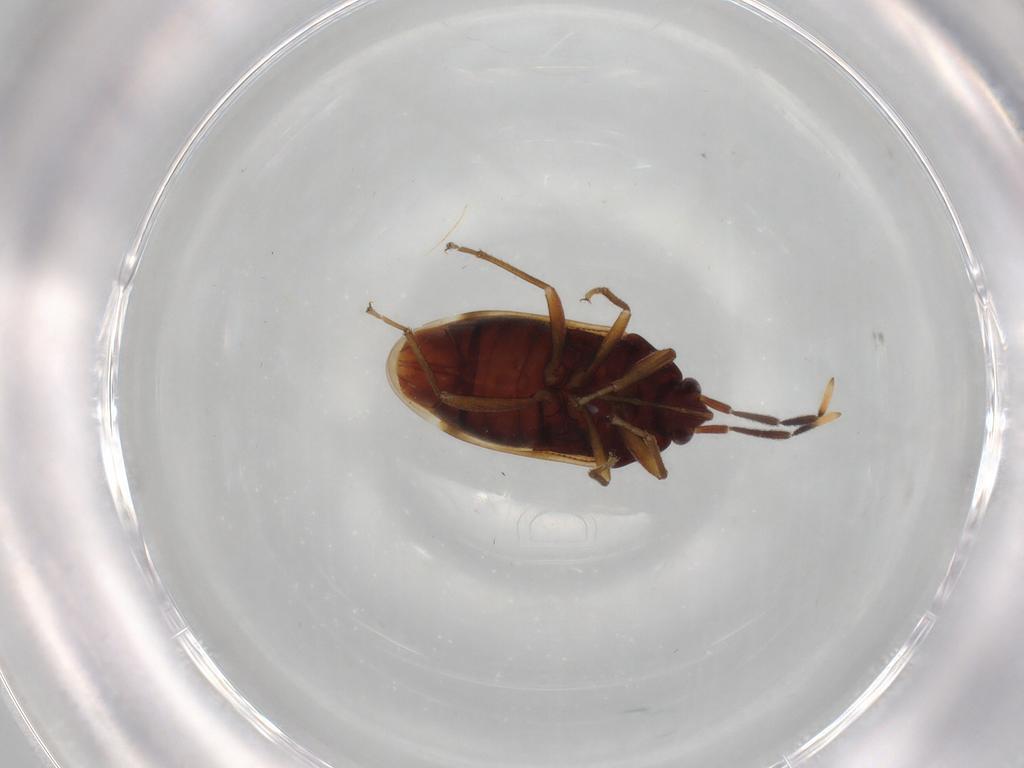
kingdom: Animalia
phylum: Arthropoda
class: Insecta
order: Hemiptera
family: Rhyparochromidae
